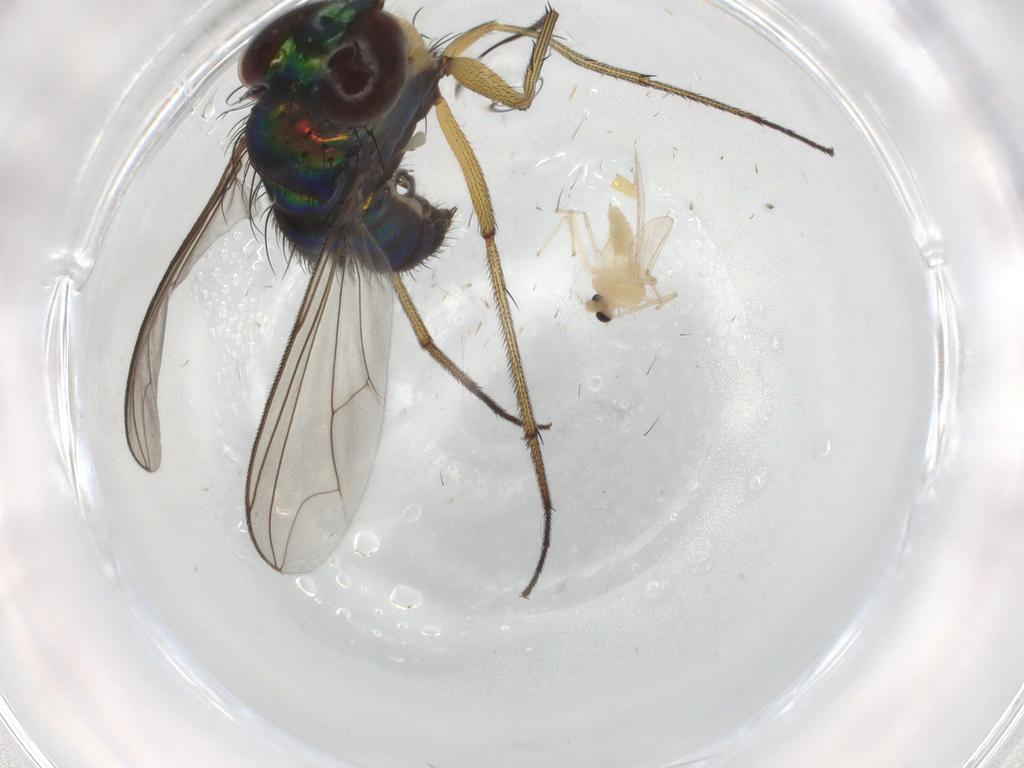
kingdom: Animalia
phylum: Arthropoda
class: Insecta
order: Diptera
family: Dolichopodidae
